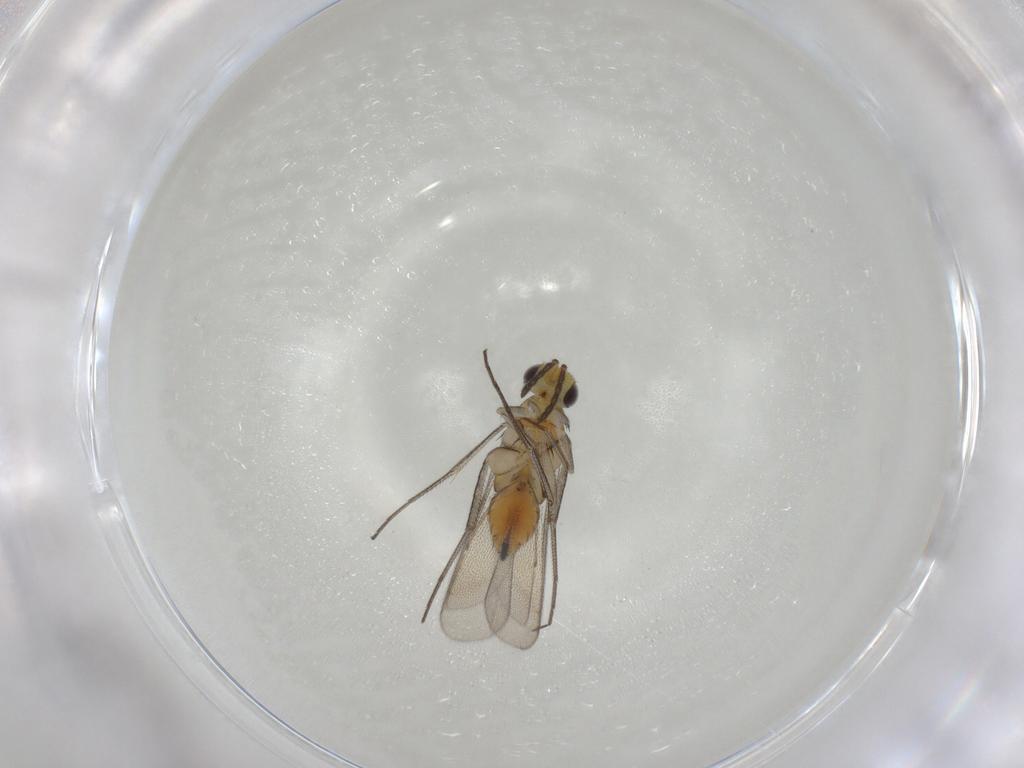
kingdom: Animalia
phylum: Arthropoda
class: Insecta
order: Hymenoptera
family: Eulophidae
